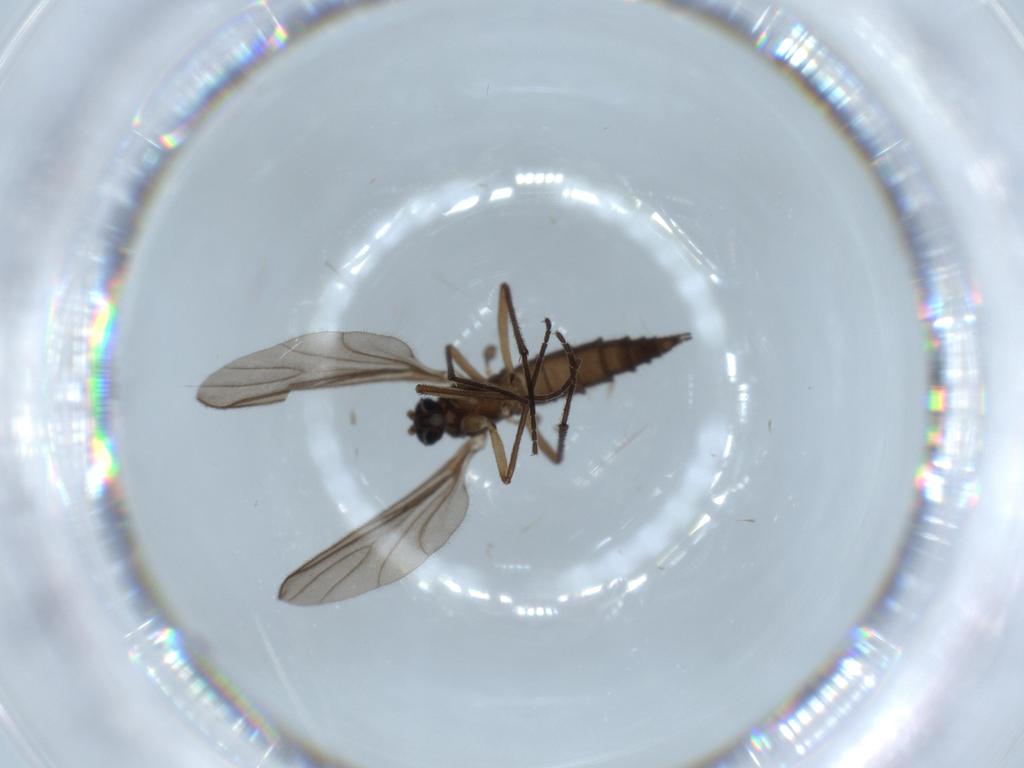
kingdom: Animalia
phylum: Arthropoda
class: Insecta
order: Diptera
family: Sciaridae
